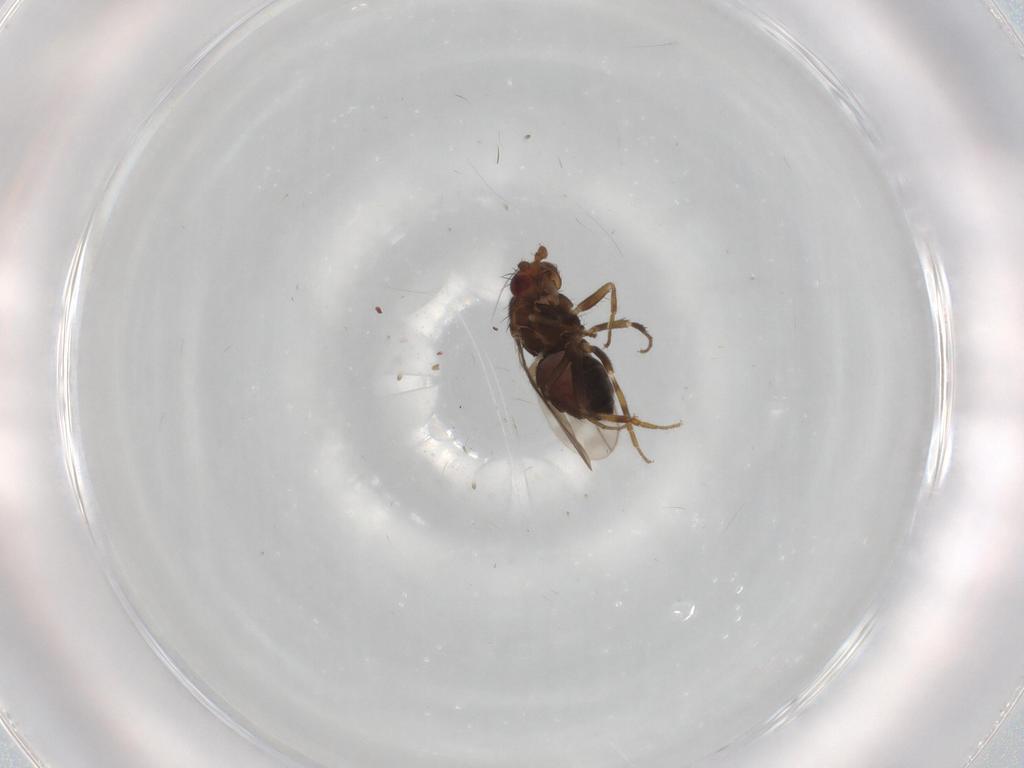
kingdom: Animalia
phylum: Arthropoda
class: Insecta
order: Diptera
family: Sphaeroceridae
